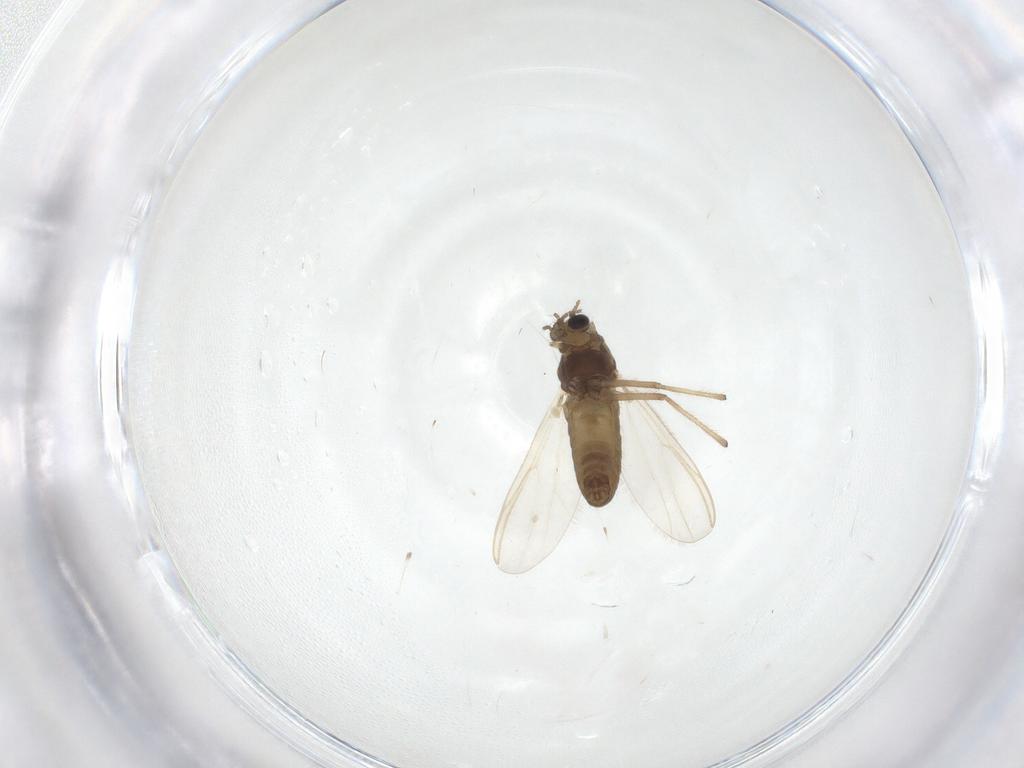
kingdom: Animalia
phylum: Arthropoda
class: Insecta
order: Diptera
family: Chironomidae
